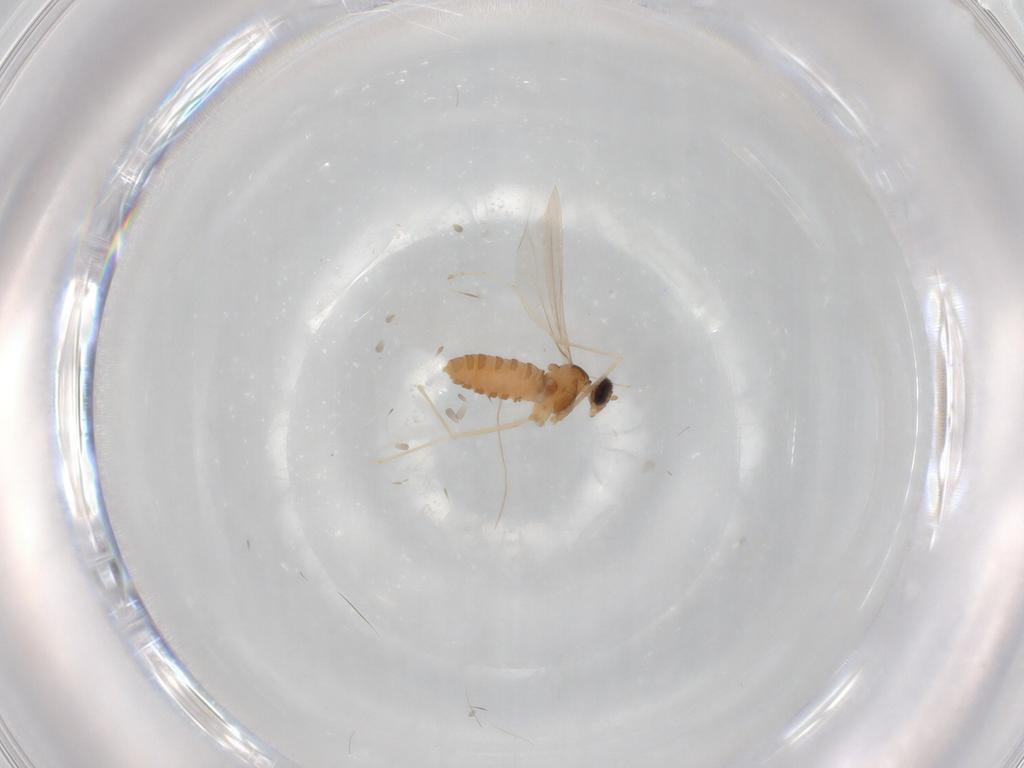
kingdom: Animalia
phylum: Arthropoda
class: Insecta
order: Diptera
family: Cecidomyiidae
